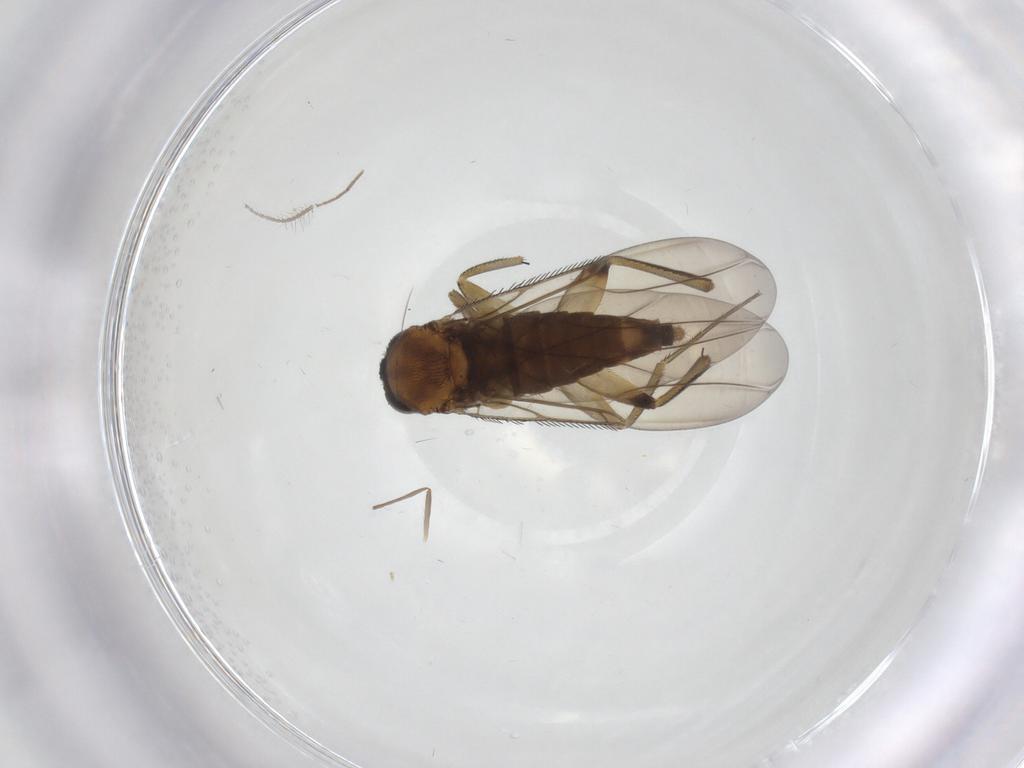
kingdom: Animalia
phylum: Arthropoda
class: Insecta
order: Diptera
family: Phoridae
